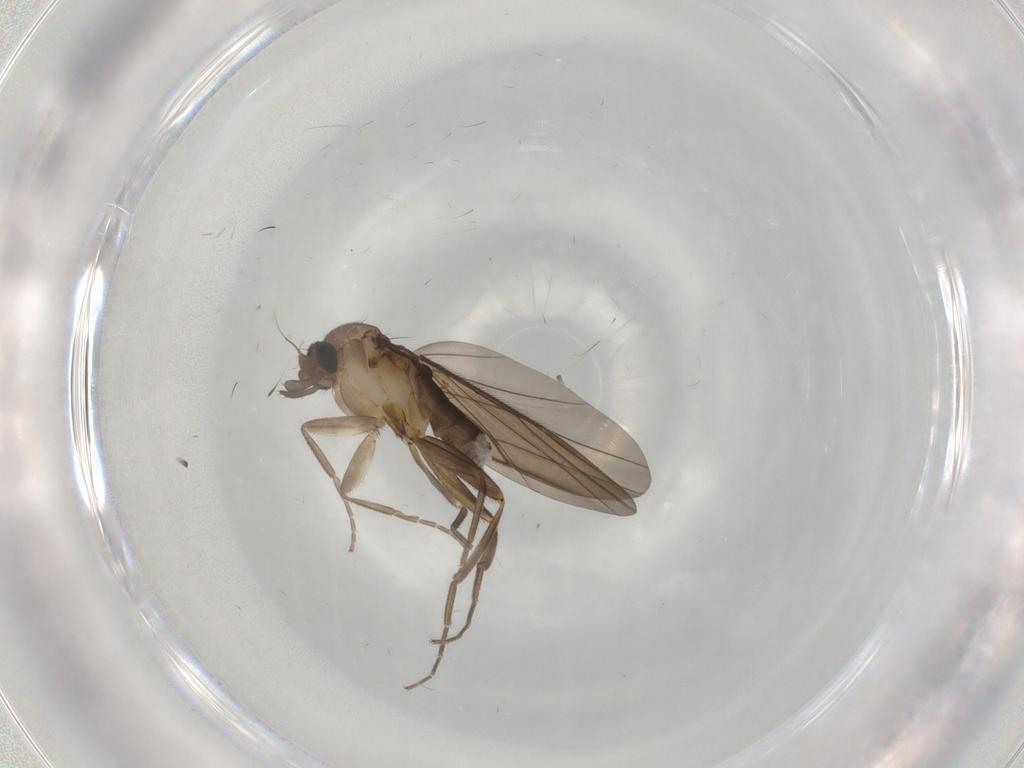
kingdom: Animalia
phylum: Arthropoda
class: Insecta
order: Diptera
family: Phoridae
